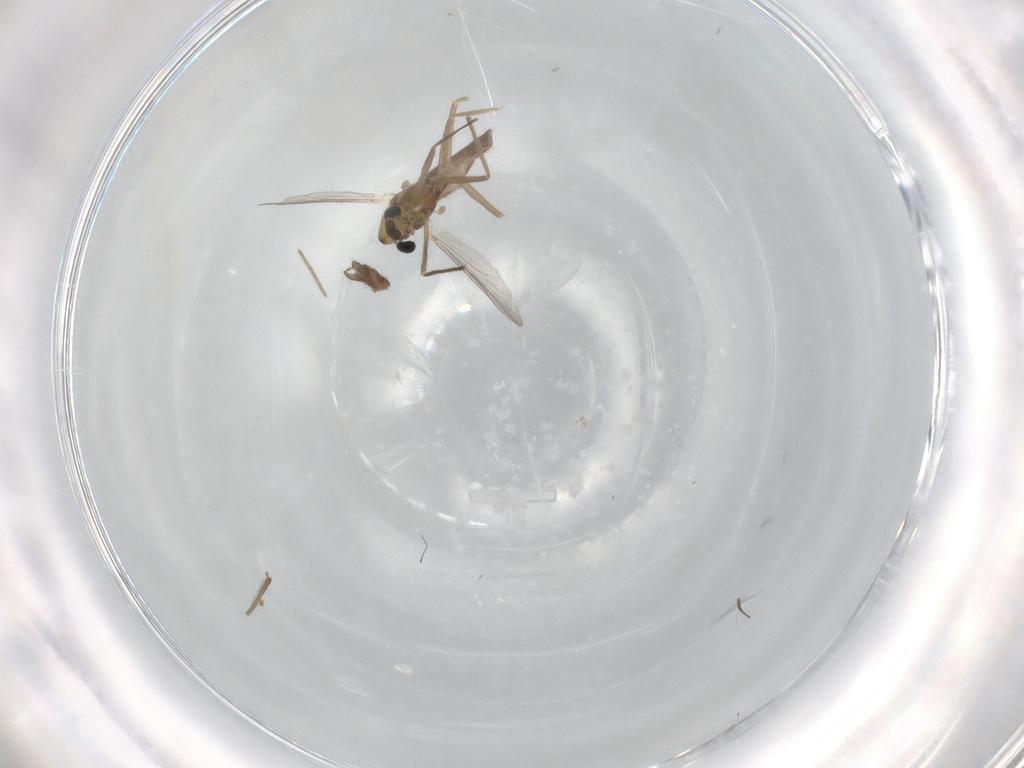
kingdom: Animalia
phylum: Arthropoda
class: Insecta
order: Diptera
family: Chironomidae
